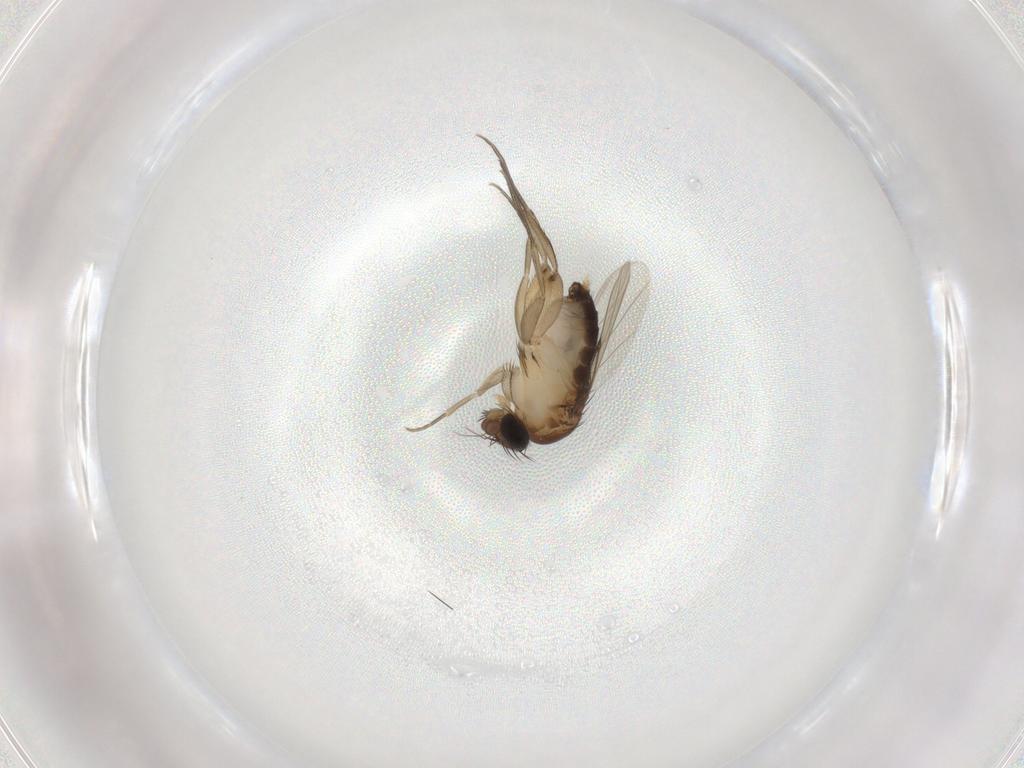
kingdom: Animalia
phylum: Arthropoda
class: Insecta
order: Diptera
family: Phoridae
